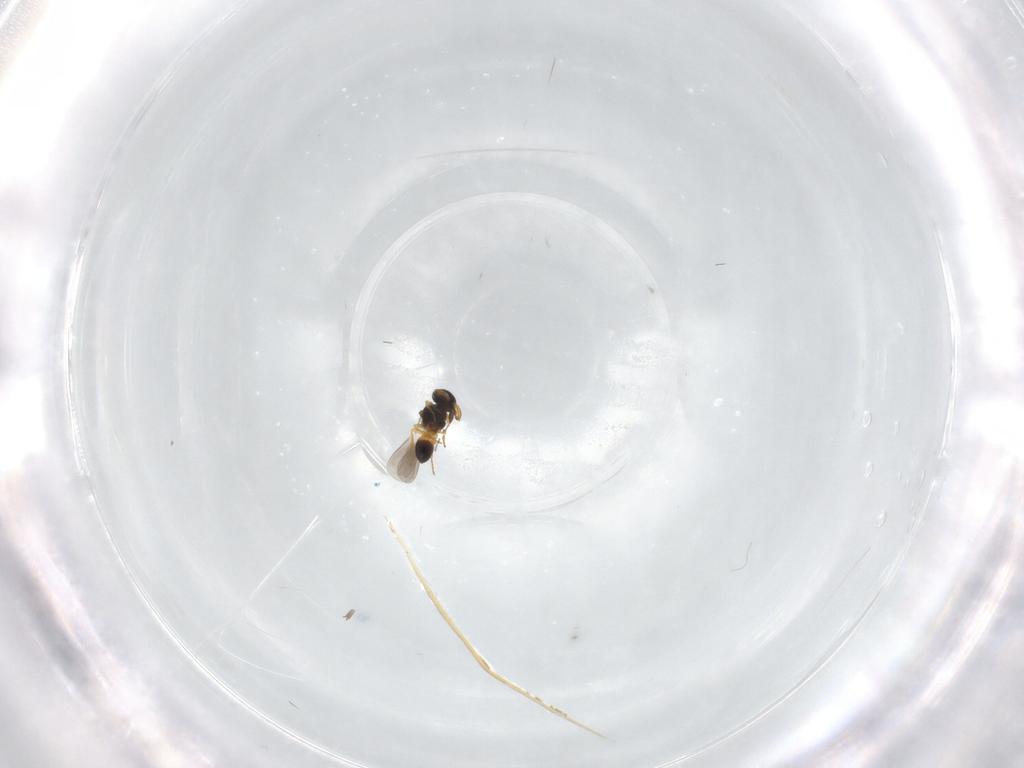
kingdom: Animalia
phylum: Arthropoda
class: Insecta
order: Hymenoptera
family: Platygastridae
